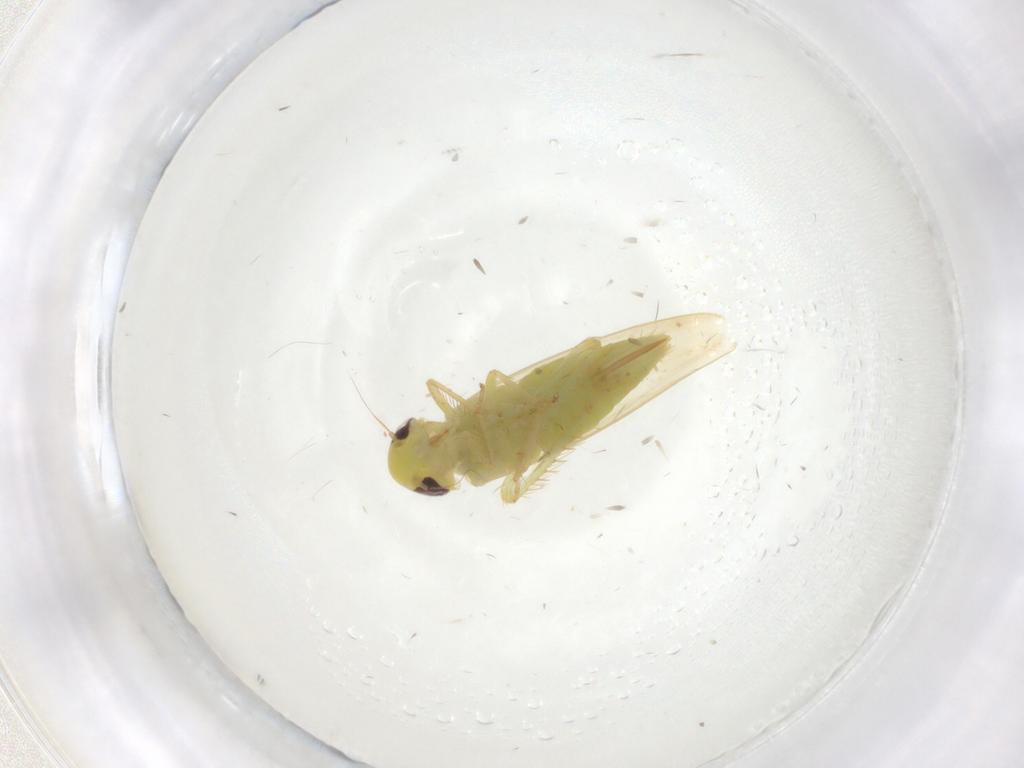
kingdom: Animalia
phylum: Arthropoda
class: Insecta
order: Hemiptera
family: Cicadellidae
